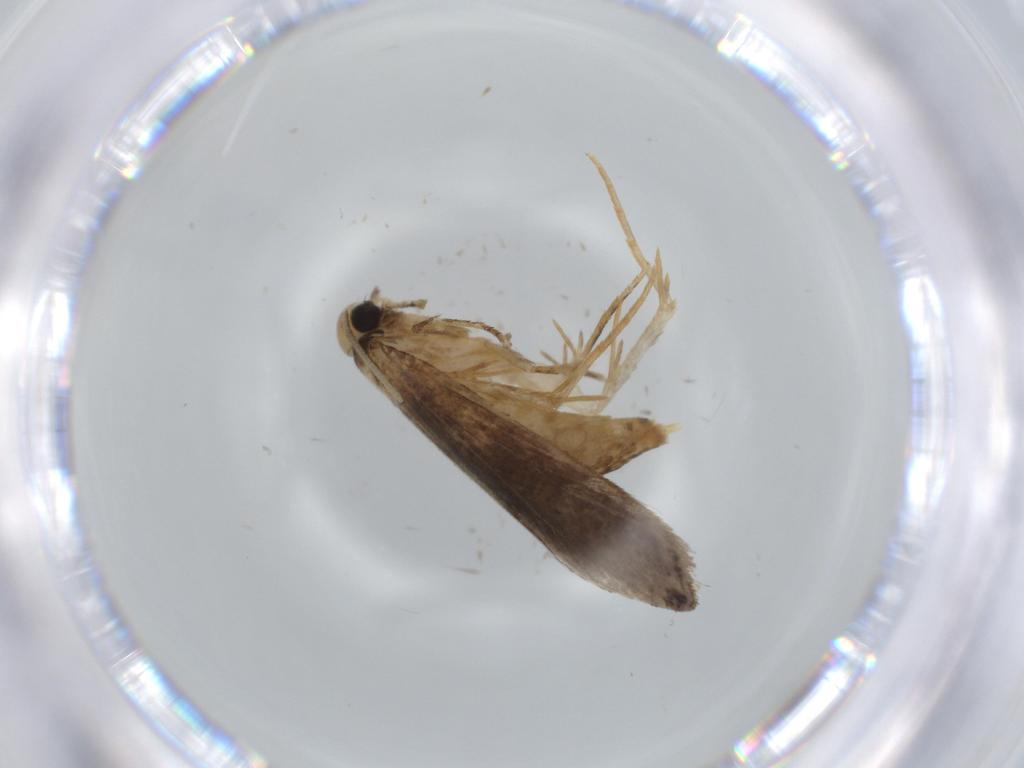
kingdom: Animalia
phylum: Arthropoda
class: Insecta
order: Lepidoptera
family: Tineidae
